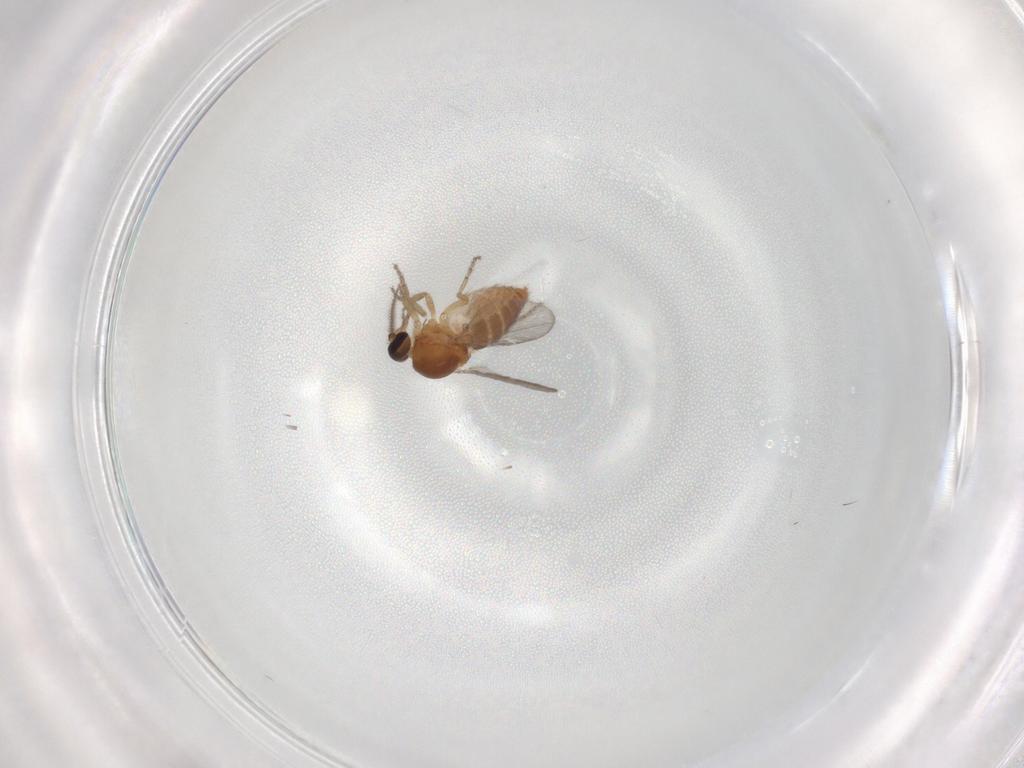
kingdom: Animalia
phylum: Arthropoda
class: Insecta
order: Diptera
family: Ceratopogonidae
